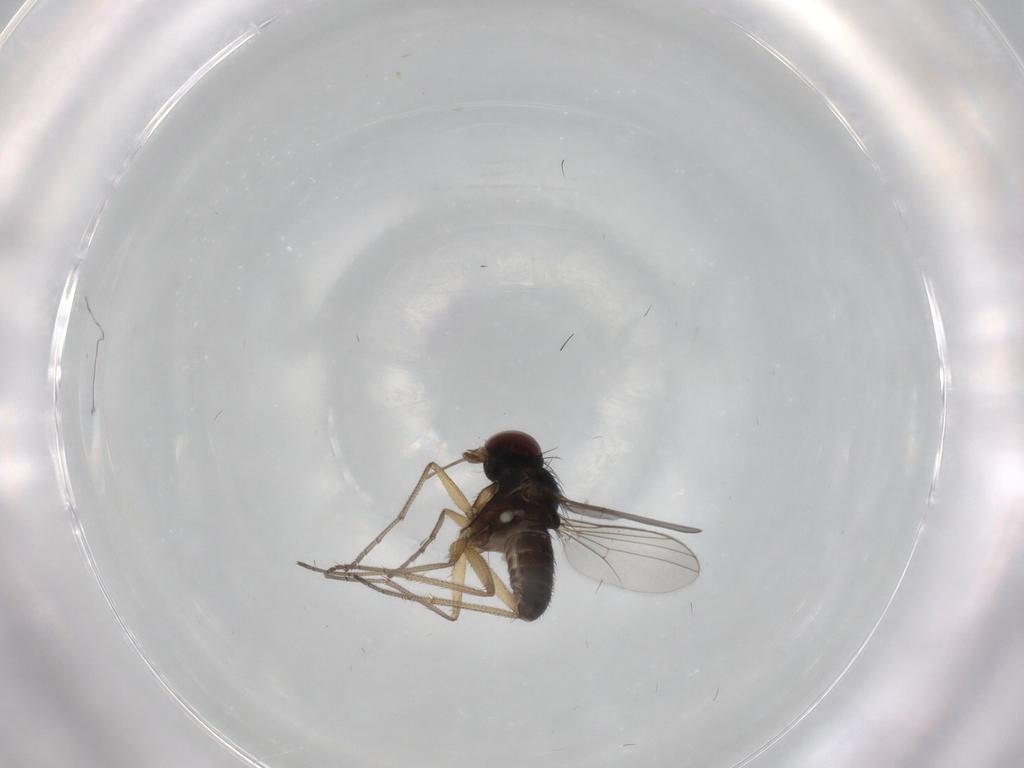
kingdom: Animalia
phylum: Arthropoda
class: Insecta
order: Diptera
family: Dolichopodidae
